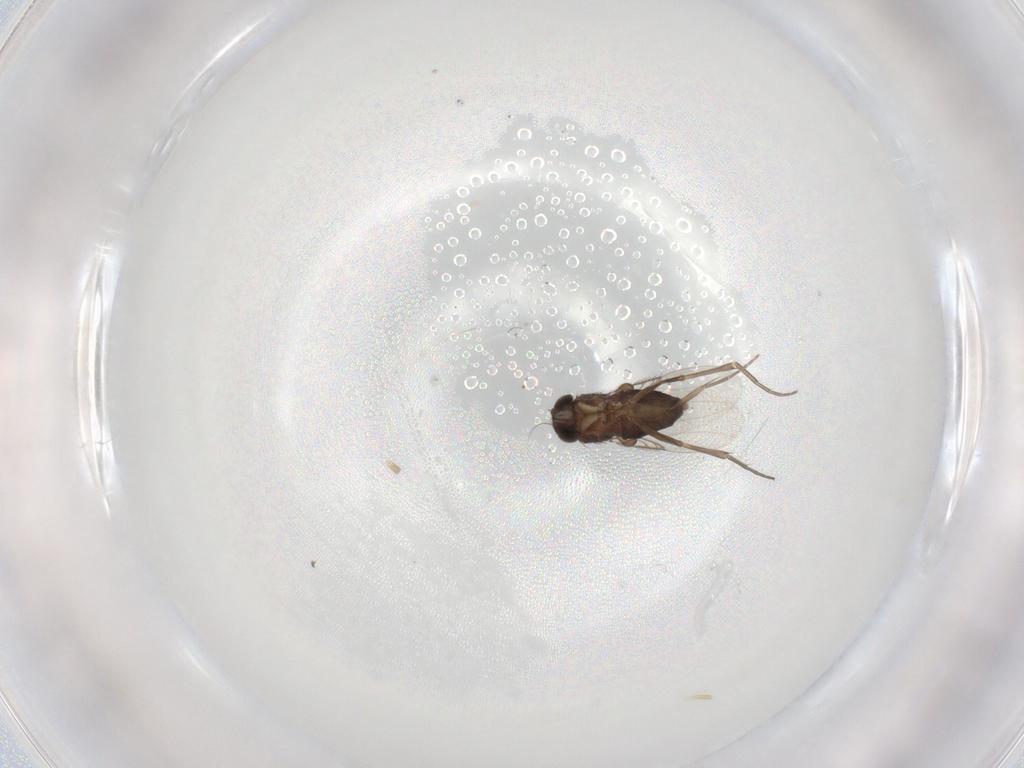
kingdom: Animalia
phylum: Arthropoda
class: Insecta
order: Diptera
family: Phoridae
